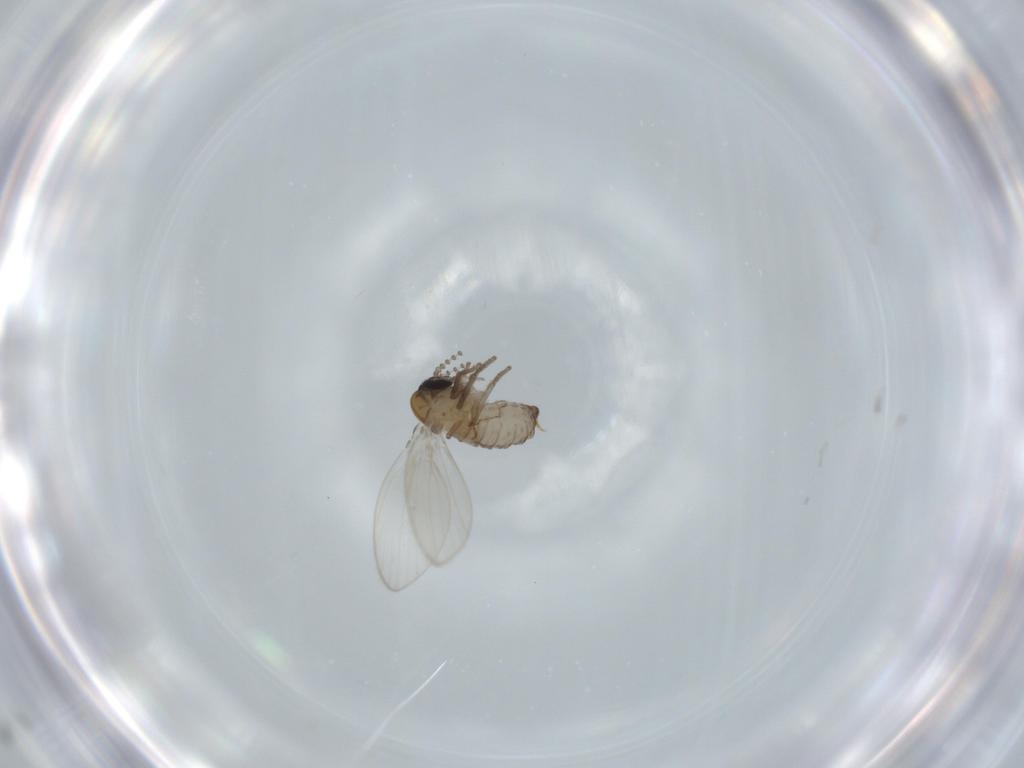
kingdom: Animalia
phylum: Arthropoda
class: Insecta
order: Diptera
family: Psychodidae
